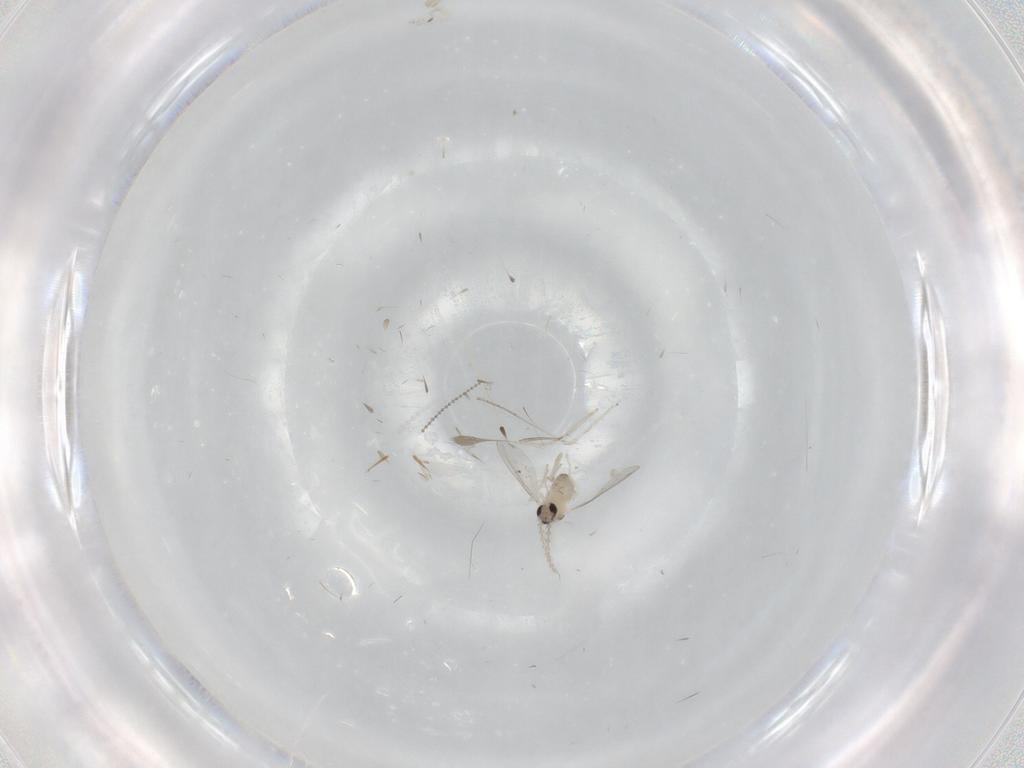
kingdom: Animalia
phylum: Arthropoda
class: Insecta
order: Diptera
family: Cecidomyiidae
